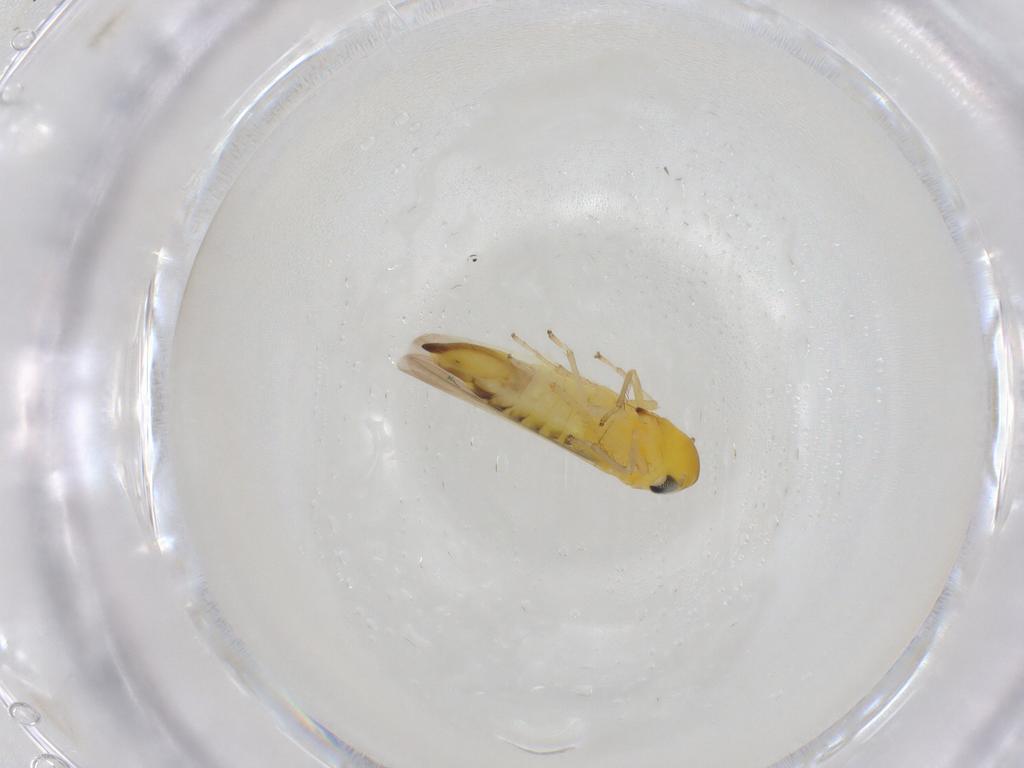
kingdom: Animalia
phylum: Arthropoda
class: Insecta
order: Hemiptera
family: Cicadellidae
